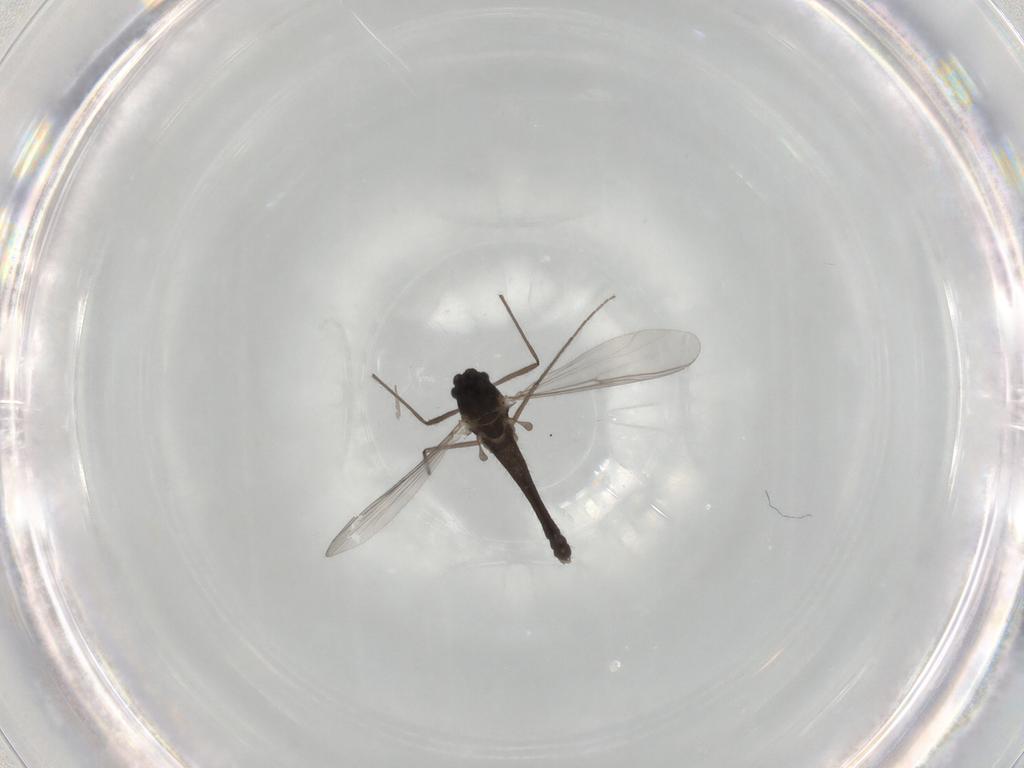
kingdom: Animalia
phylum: Arthropoda
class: Insecta
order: Diptera
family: Chironomidae
